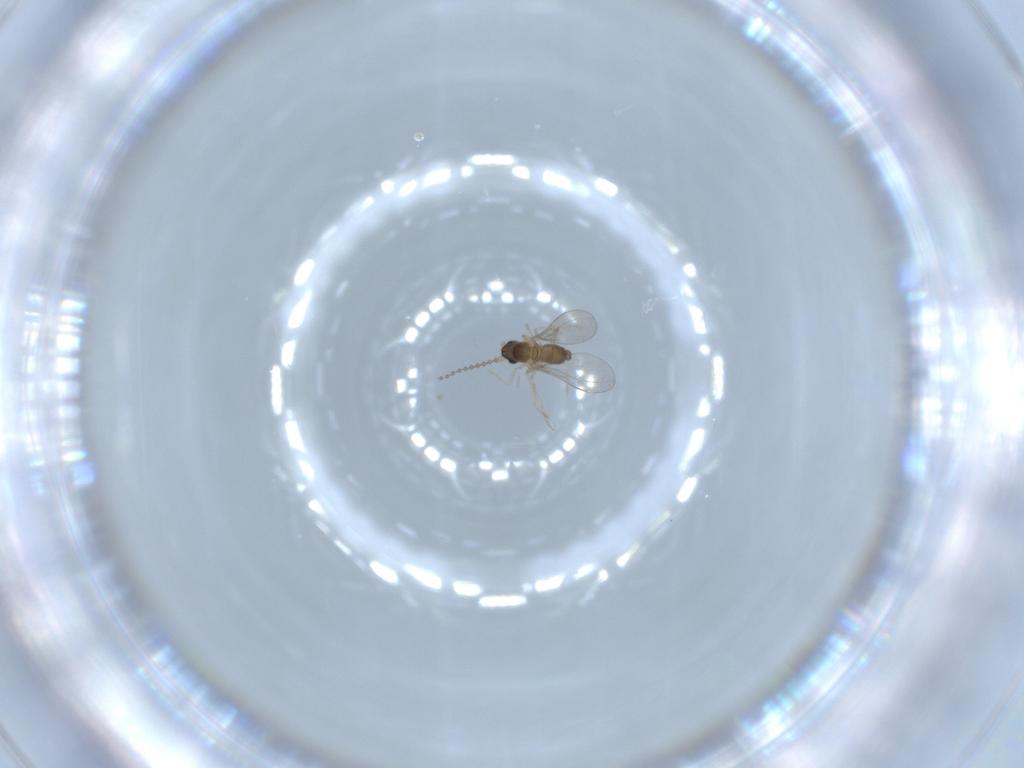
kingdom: Animalia
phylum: Arthropoda
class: Insecta
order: Diptera
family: Cecidomyiidae
